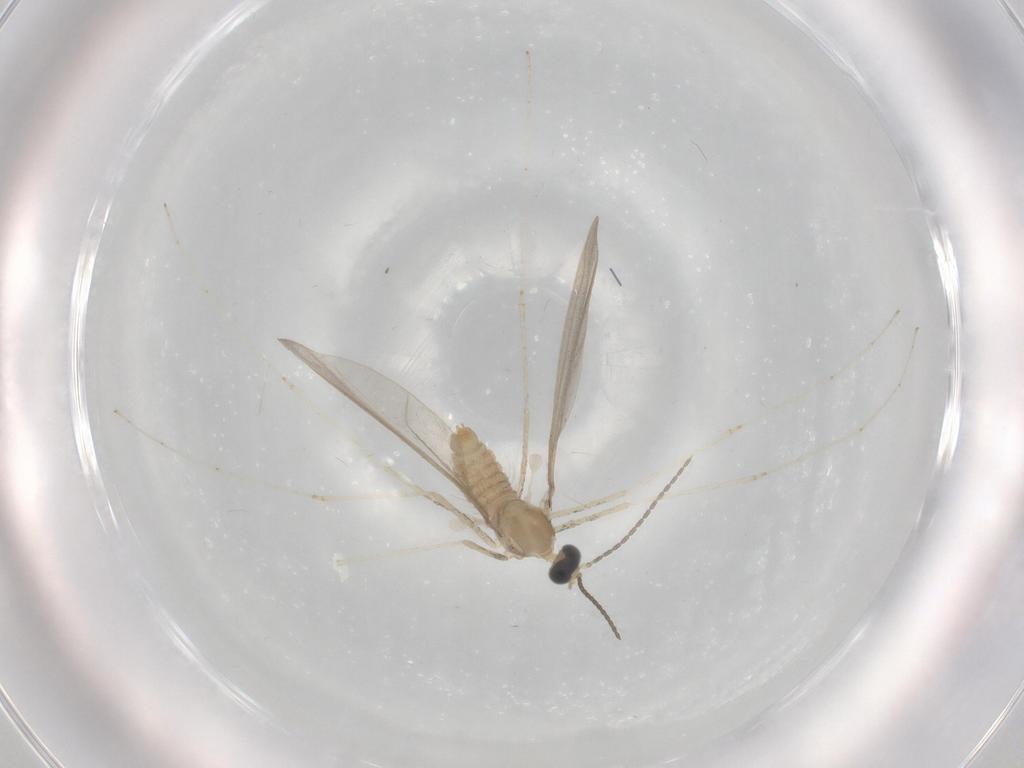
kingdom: Animalia
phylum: Arthropoda
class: Insecta
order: Diptera
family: Cecidomyiidae
